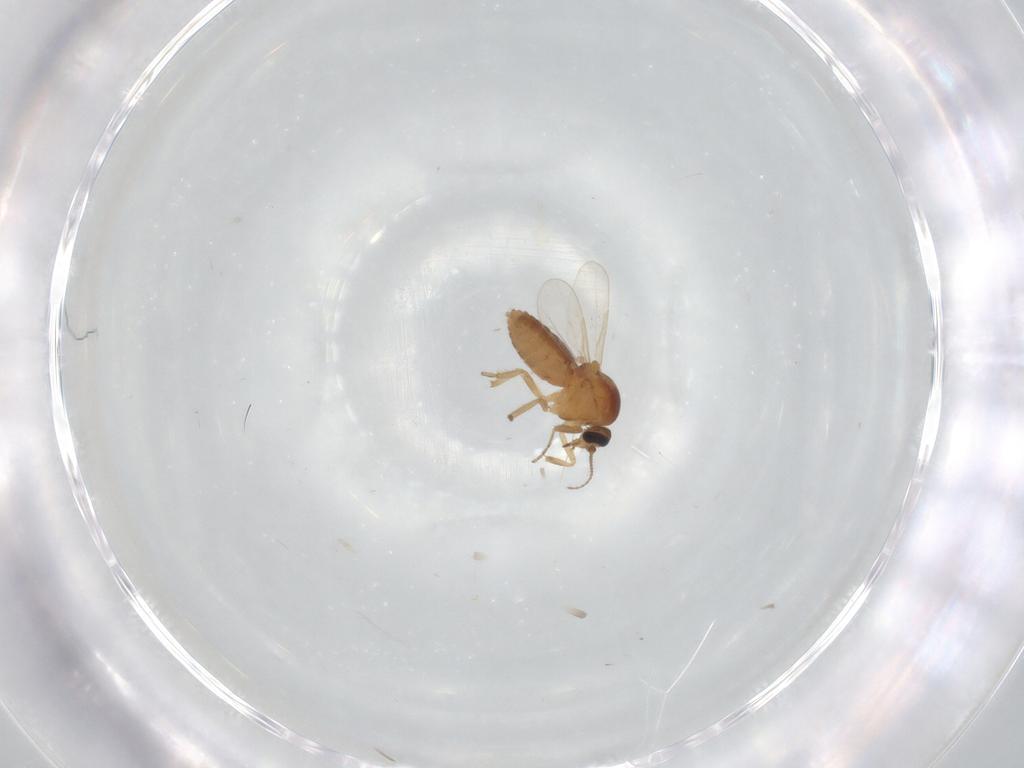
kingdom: Animalia
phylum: Arthropoda
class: Insecta
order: Diptera
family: Ceratopogonidae
